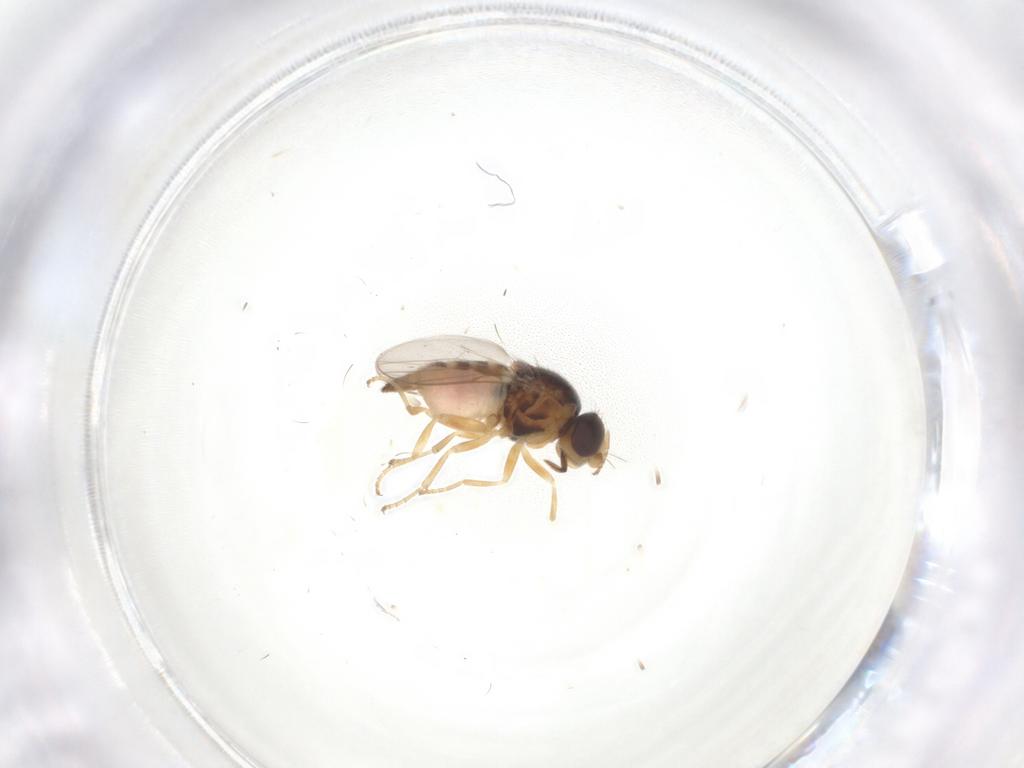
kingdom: Animalia
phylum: Arthropoda
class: Insecta
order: Diptera
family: Chloropidae
